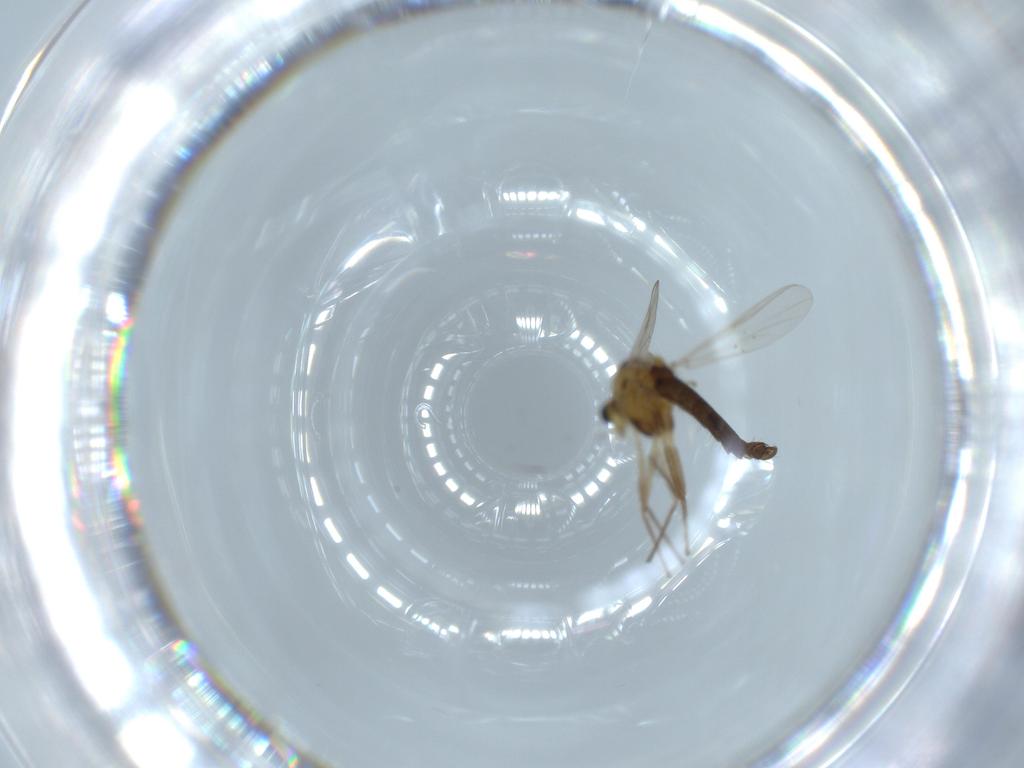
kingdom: Animalia
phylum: Arthropoda
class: Insecta
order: Diptera
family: Chironomidae
